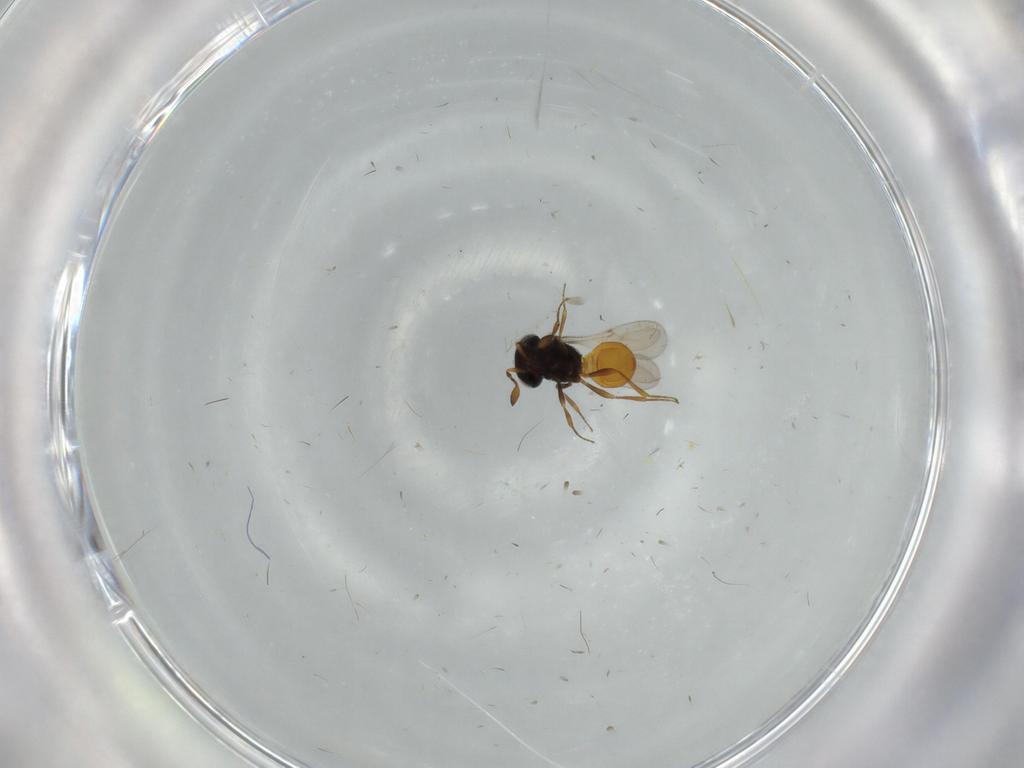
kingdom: Animalia
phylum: Arthropoda
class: Insecta
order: Hymenoptera
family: Scelionidae
